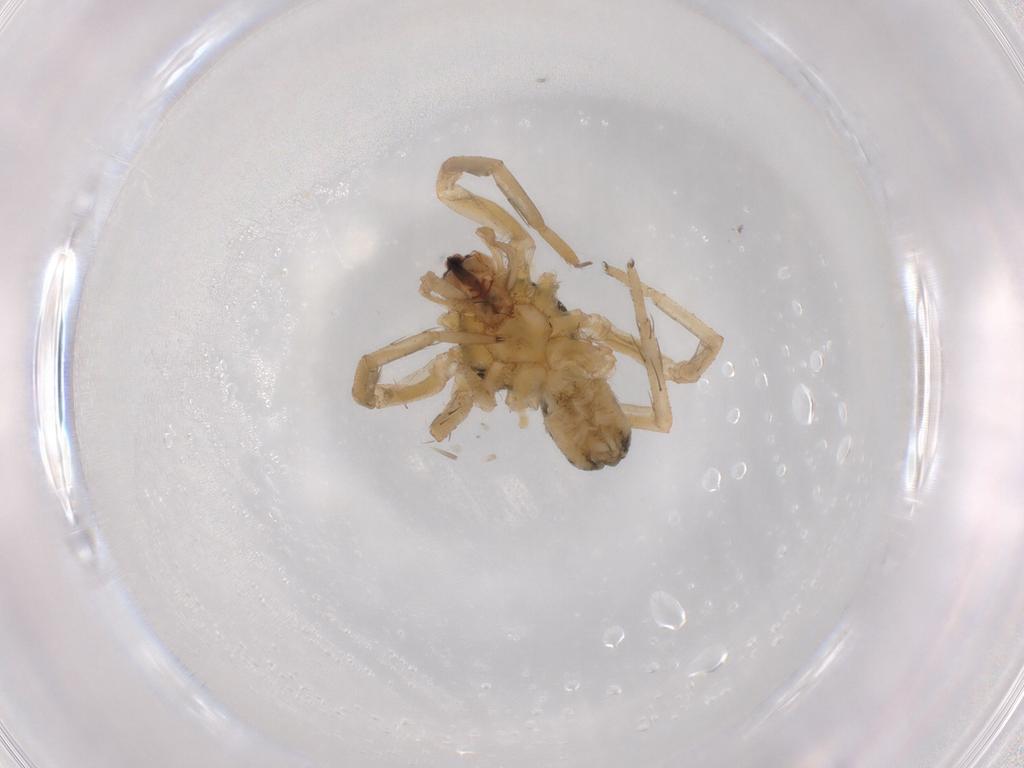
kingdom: Animalia
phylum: Arthropoda
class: Arachnida
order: Araneae
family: Lycosidae
